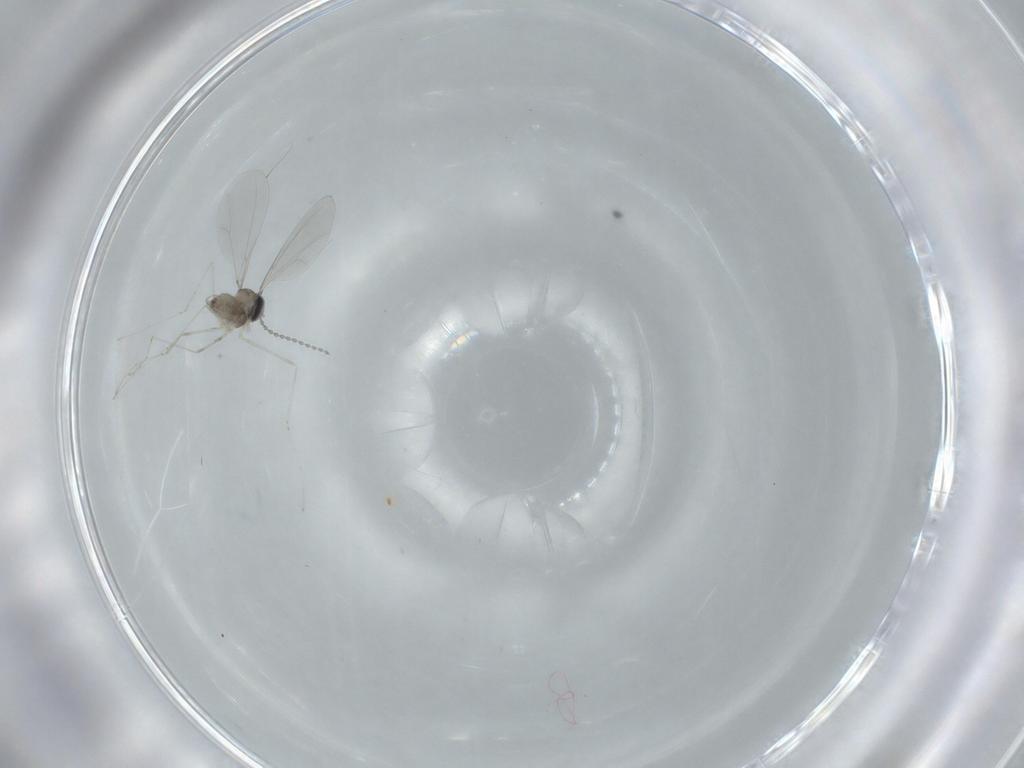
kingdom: Animalia
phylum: Arthropoda
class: Insecta
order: Diptera
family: Cecidomyiidae
